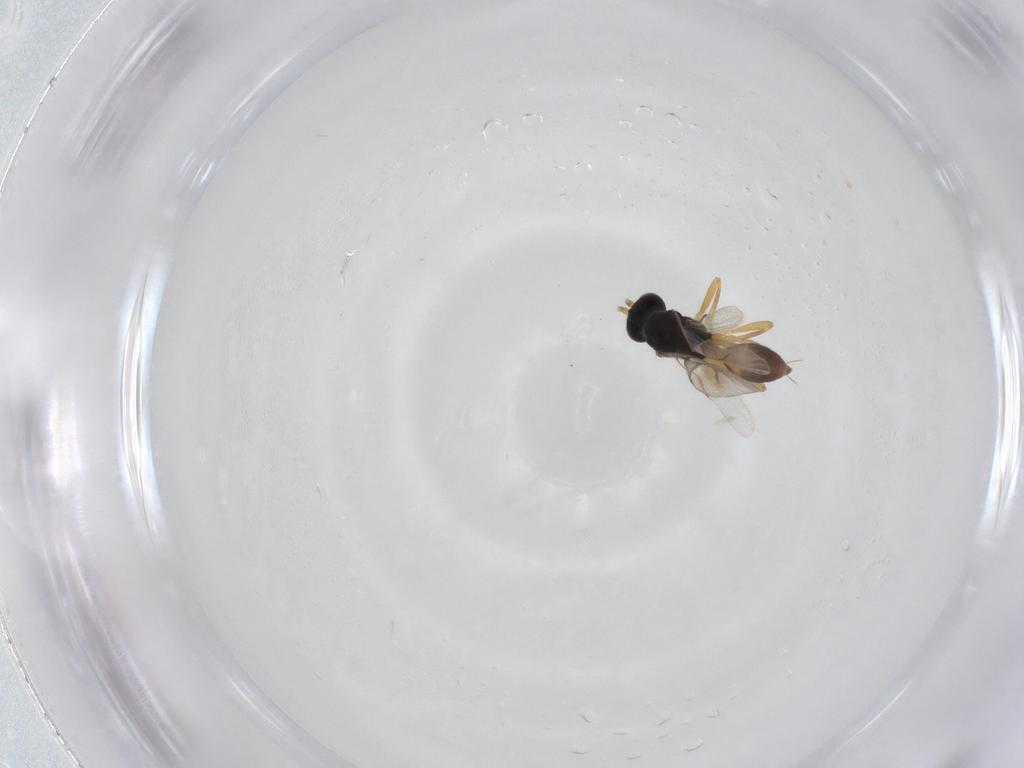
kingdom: Animalia
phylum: Arthropoda
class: Insecta
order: Hymenoptera
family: Braconidae
